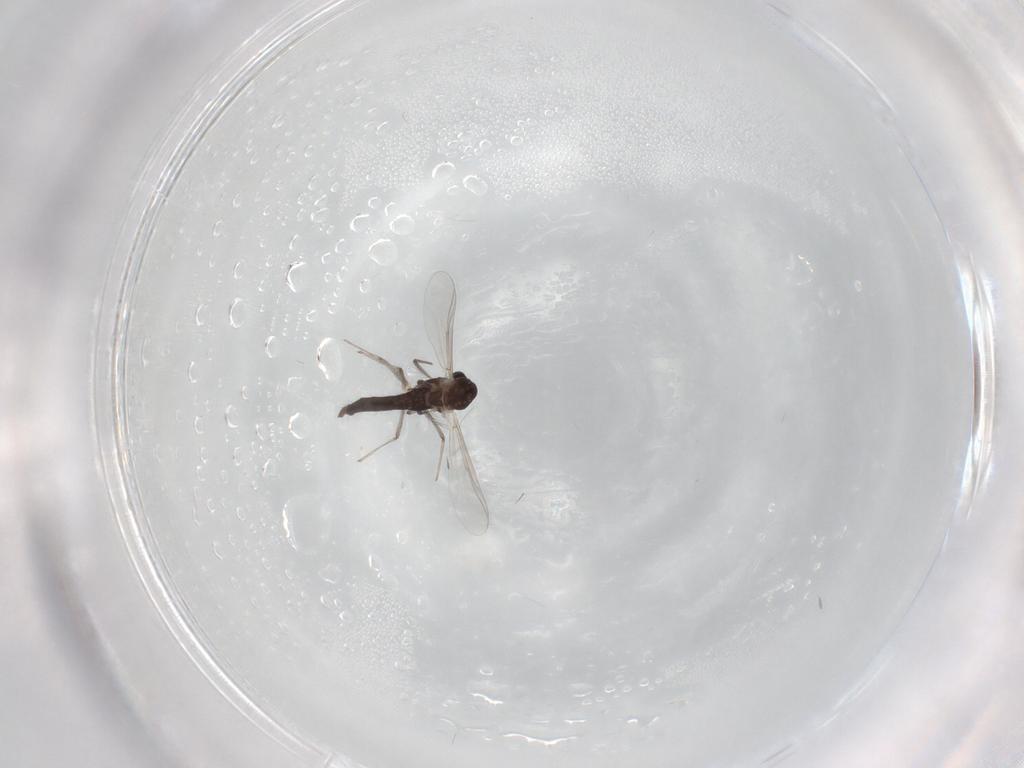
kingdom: Animalia
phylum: Arthropoda
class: Insecta
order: Diptera
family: Chironomidae
